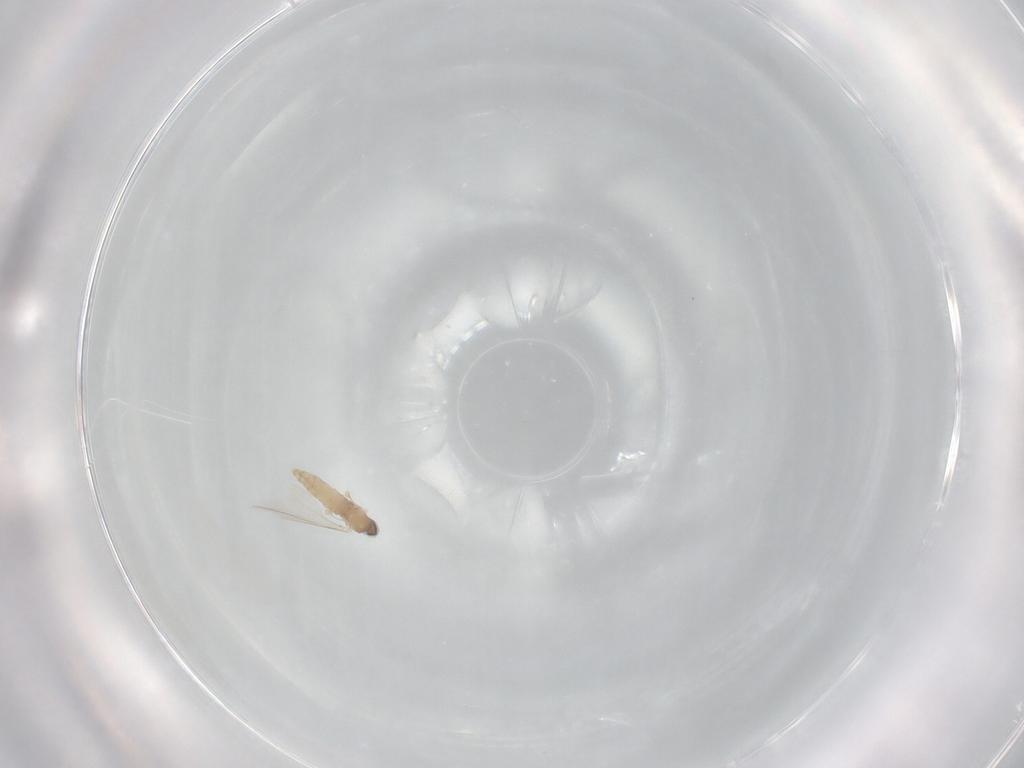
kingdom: Animalia
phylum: Arthropoda
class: Insecta
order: Diptera
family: Cecidomyiidae
